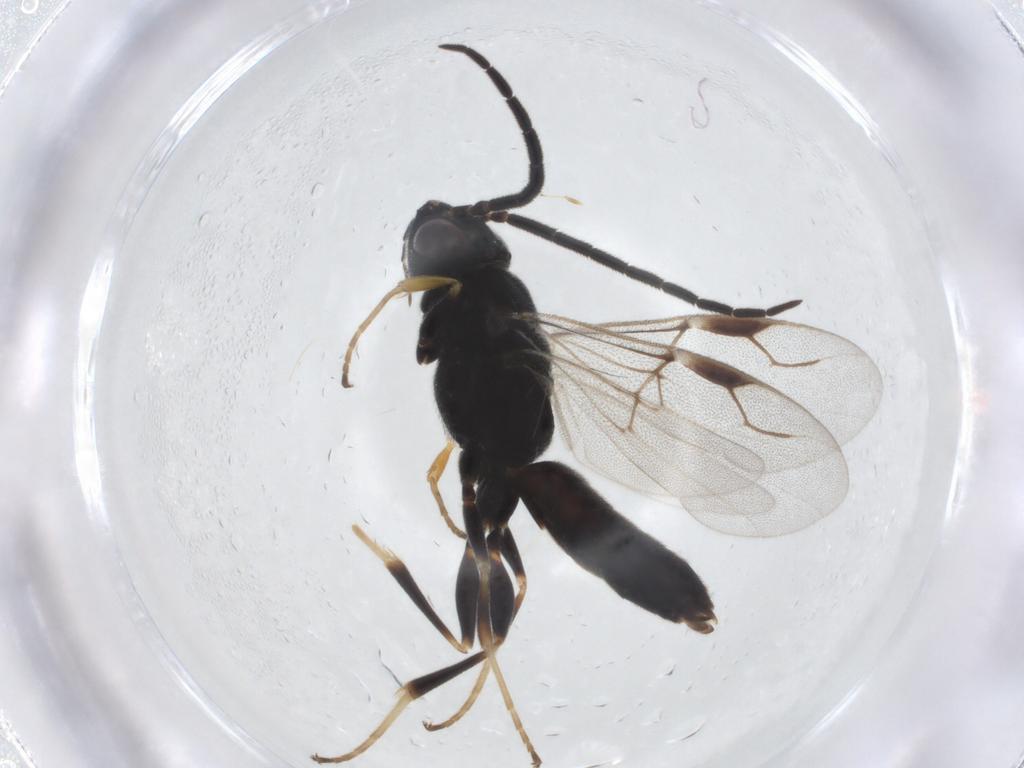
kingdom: Animalia
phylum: Arthropoda
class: Insecta
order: Hymenoptera
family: Dryinidae
